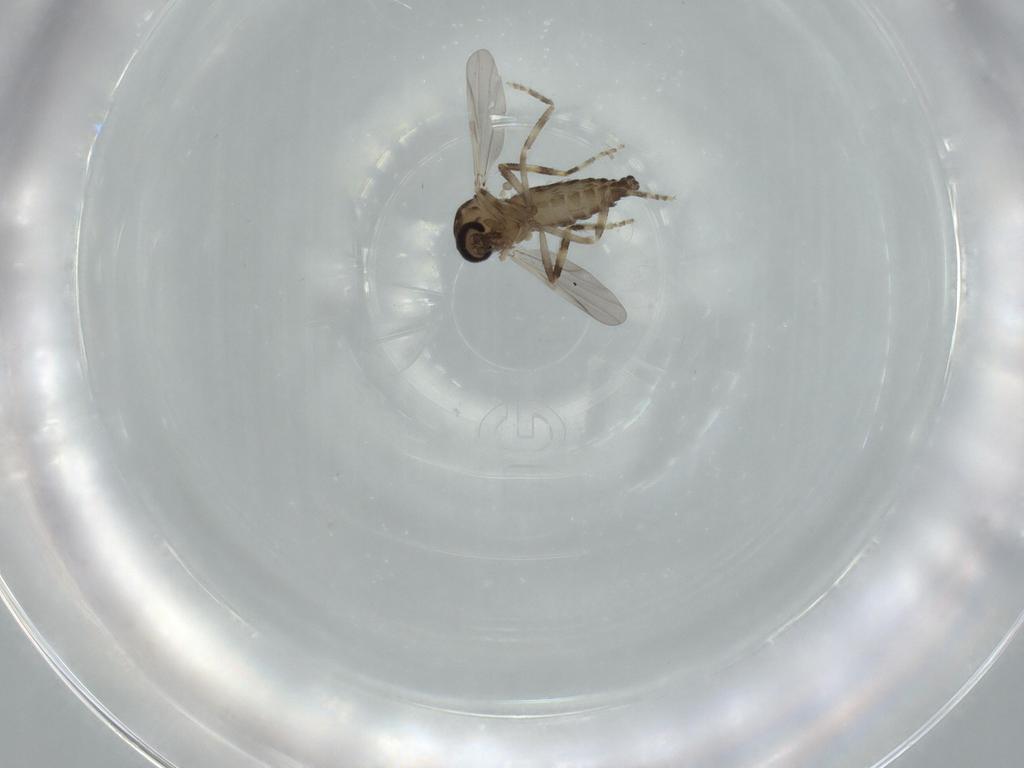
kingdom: Animalia
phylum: Arthropoda
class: Insecta
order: Diptera
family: Ceratopogonidae
